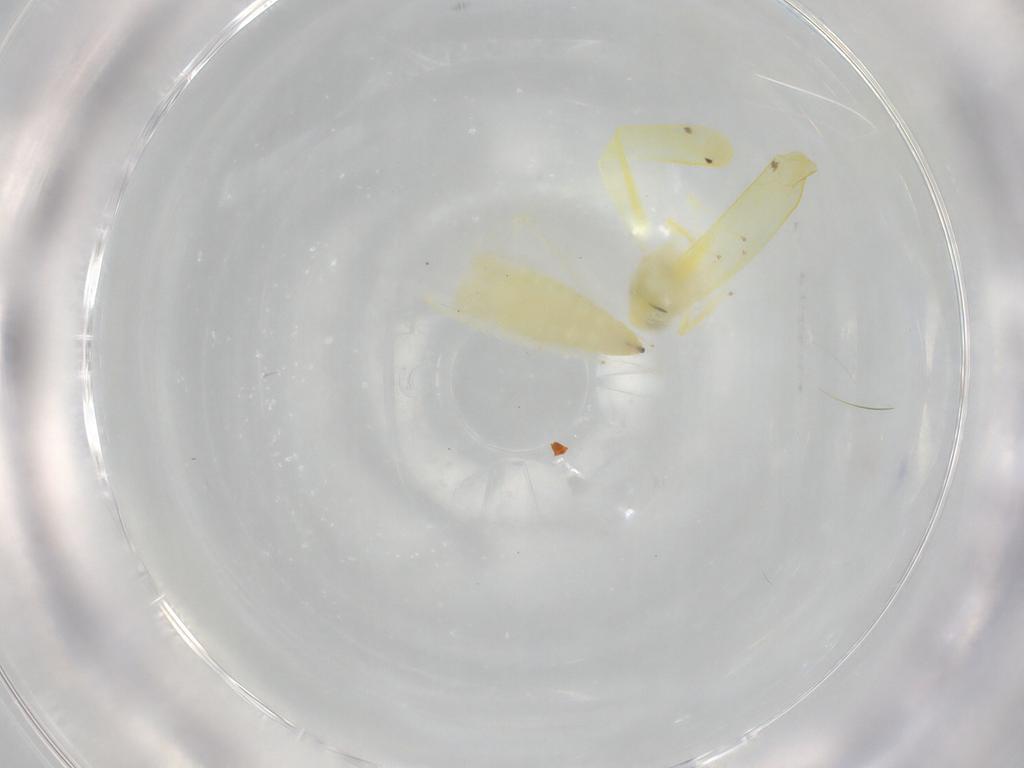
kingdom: Animalia
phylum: Arthropoda
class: Insecta
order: Hemiptera
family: Cicadellidae
